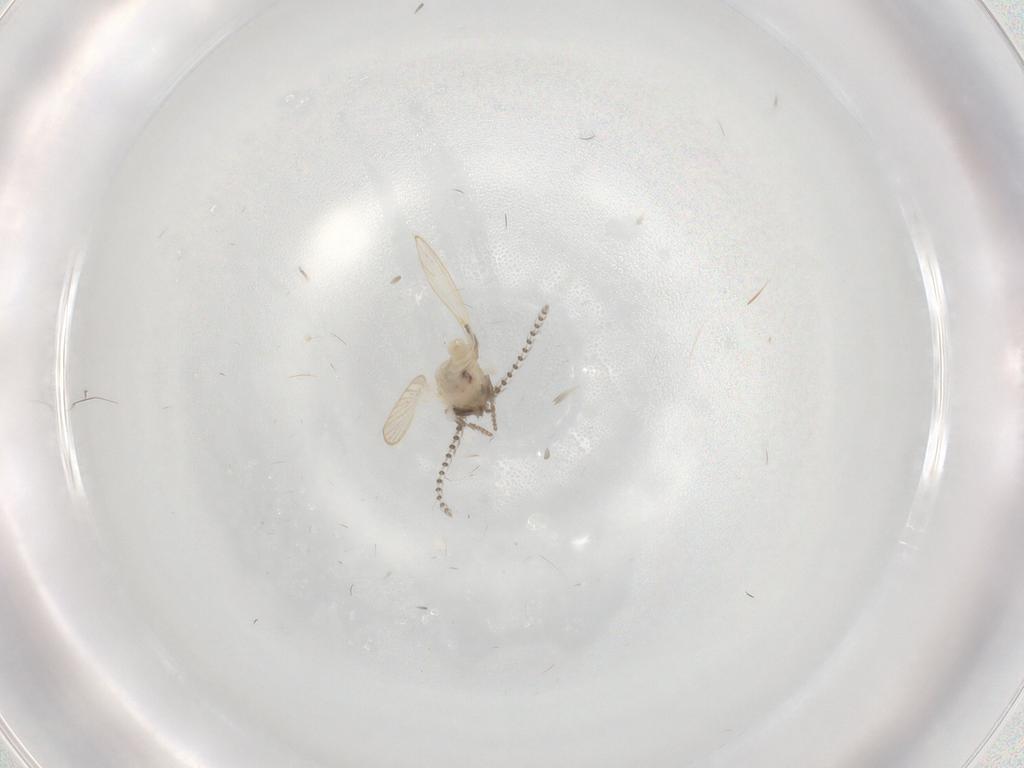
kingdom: Animalia
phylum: Arthropoda
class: Insecta
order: Diptera
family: Psychodidae
